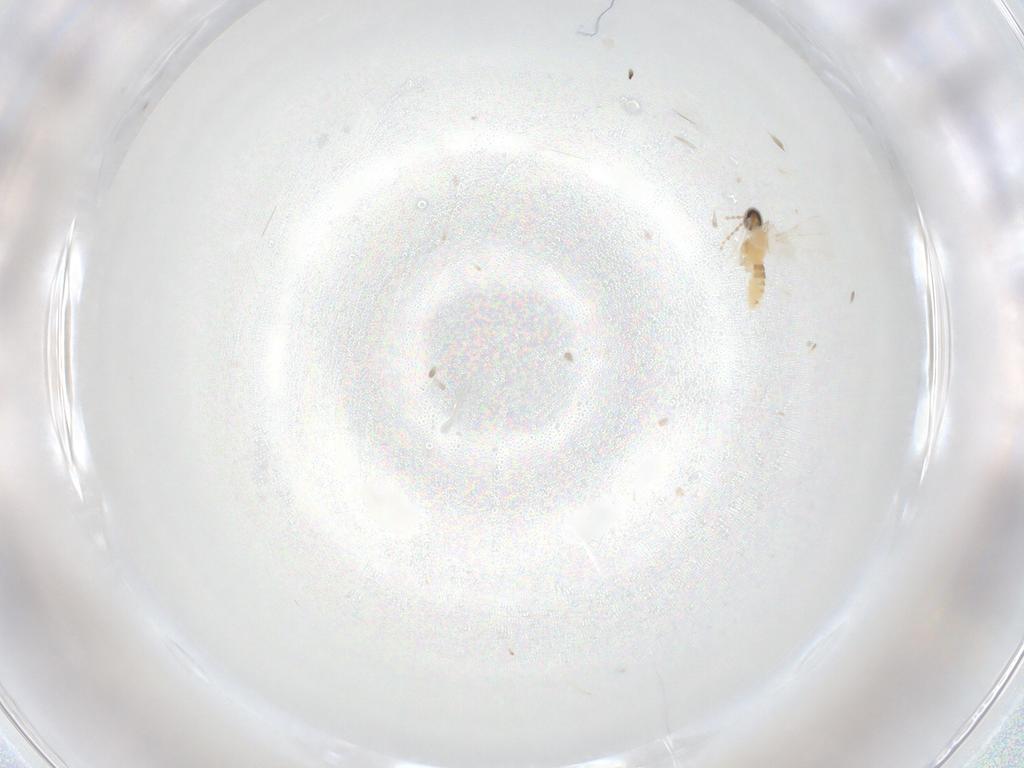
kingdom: Animalia
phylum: Arthropoda
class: Insecta
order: Diptera
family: Cecidomyiidae
